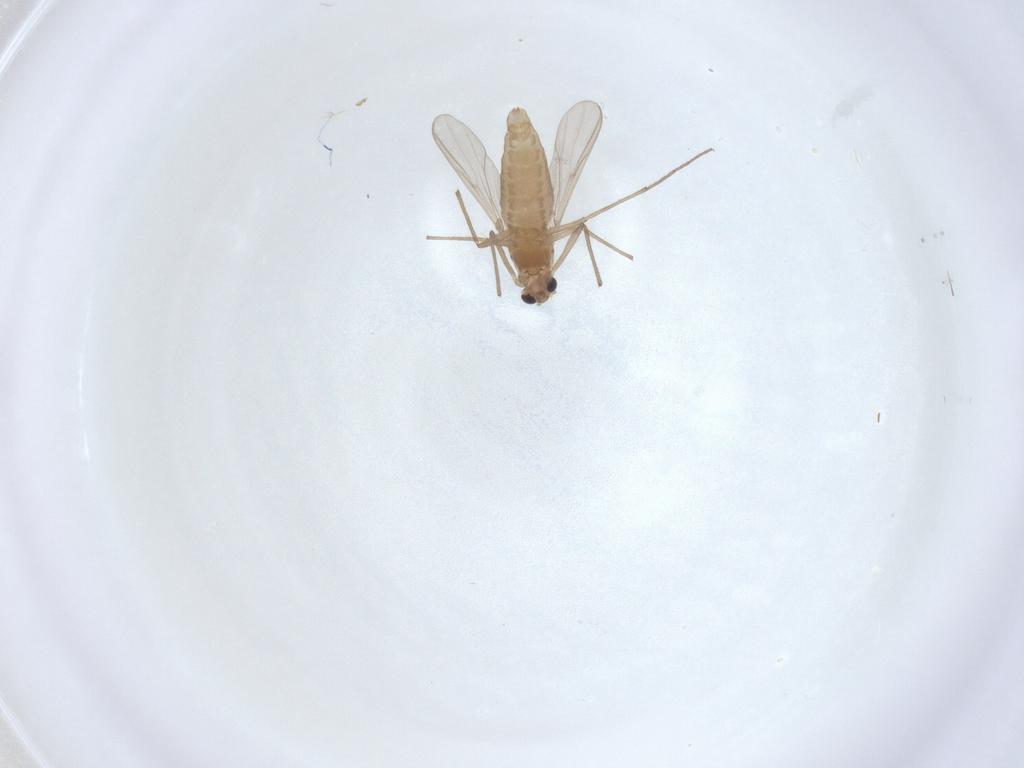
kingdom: Animalia
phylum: Arthropoda
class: Insecta
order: Diptera
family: Chironomidae
